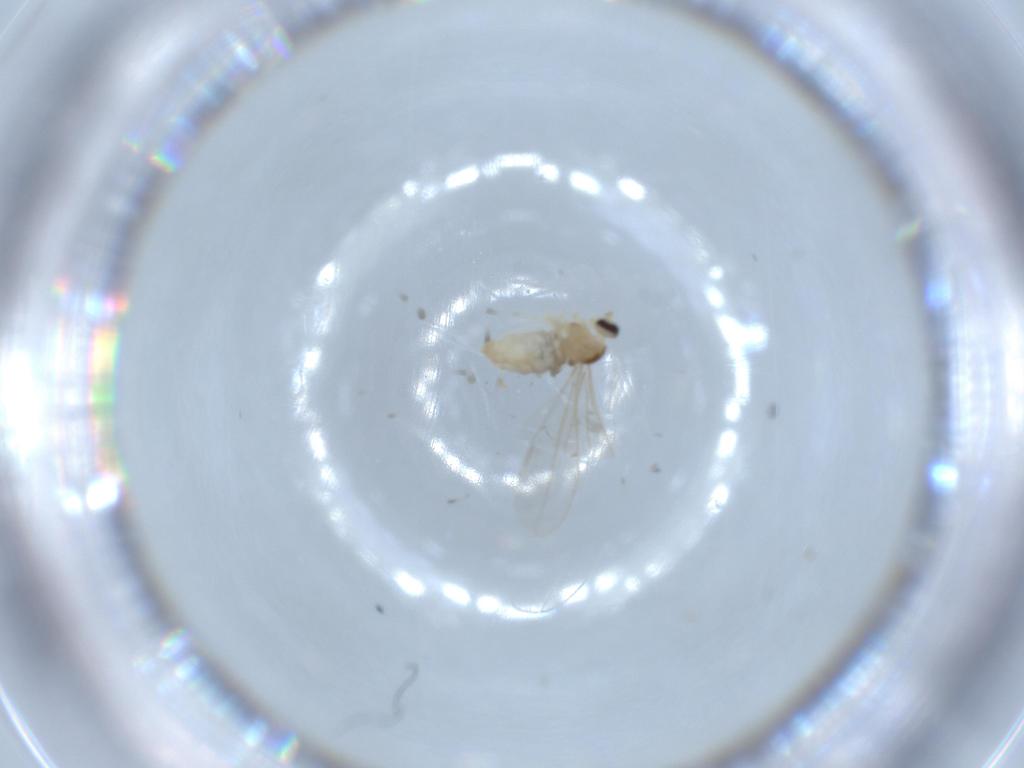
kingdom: Animalia
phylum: Arthropoda
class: Insecta
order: Diptera
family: Cecidomyiidae
